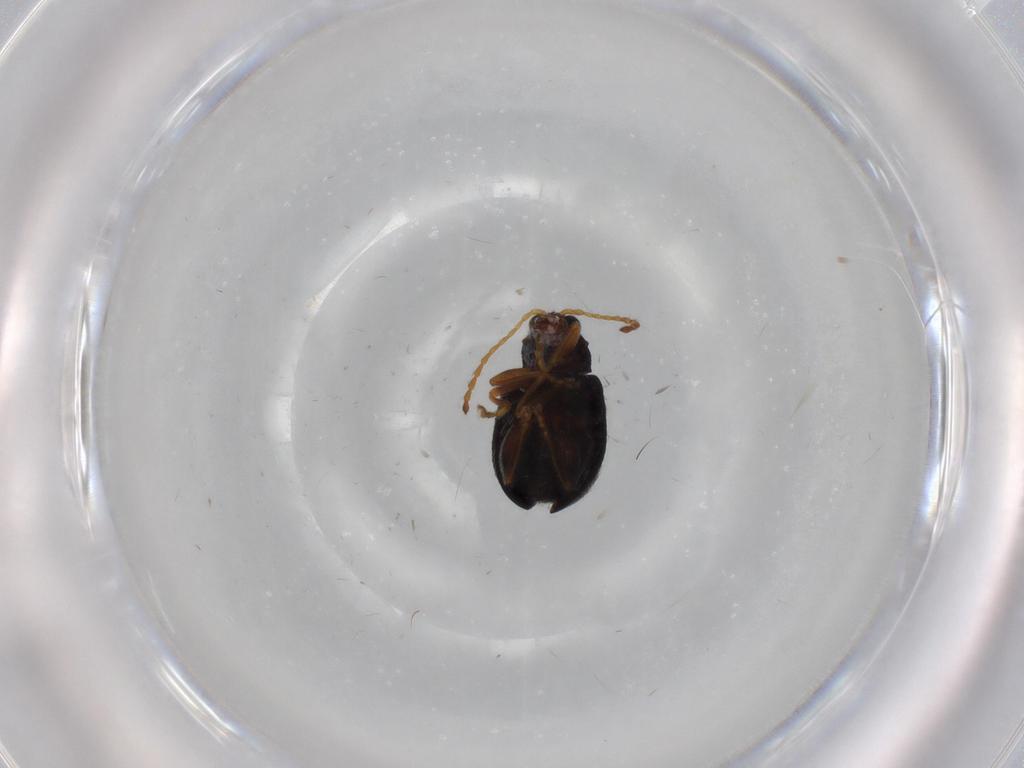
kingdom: Animalia
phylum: Arthropoda
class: Insecta
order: Coleoptera
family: Chrysomelidae
